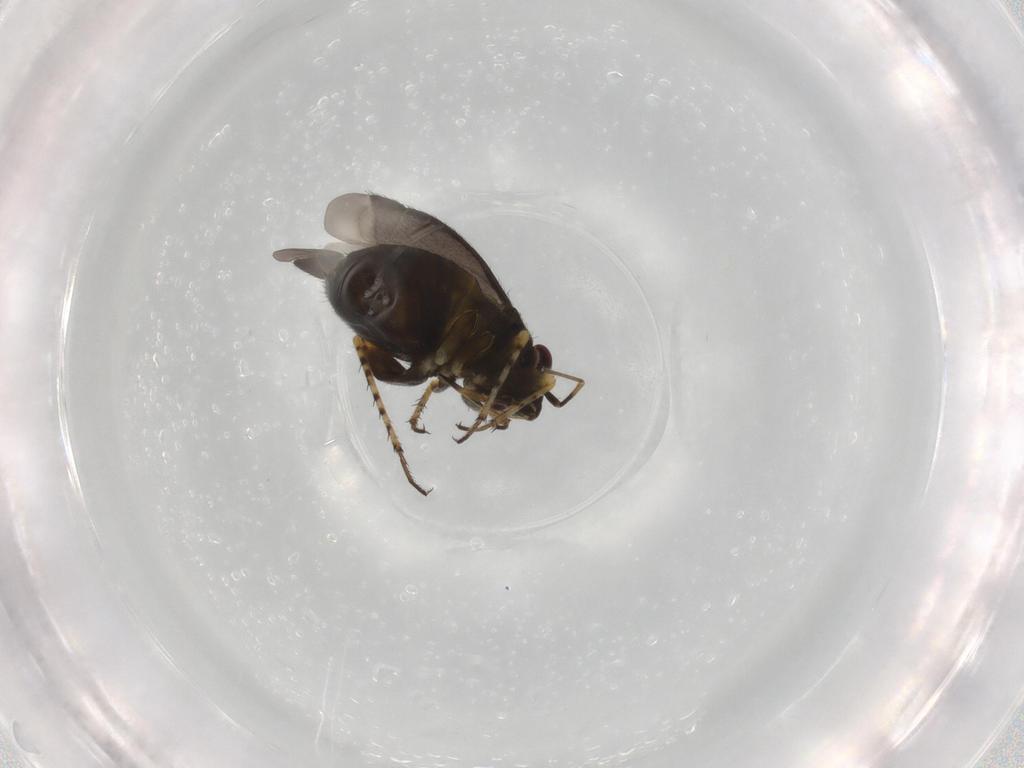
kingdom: Animalia
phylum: Arthropoda
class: Insecta
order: Hemiptera
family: Miridae
